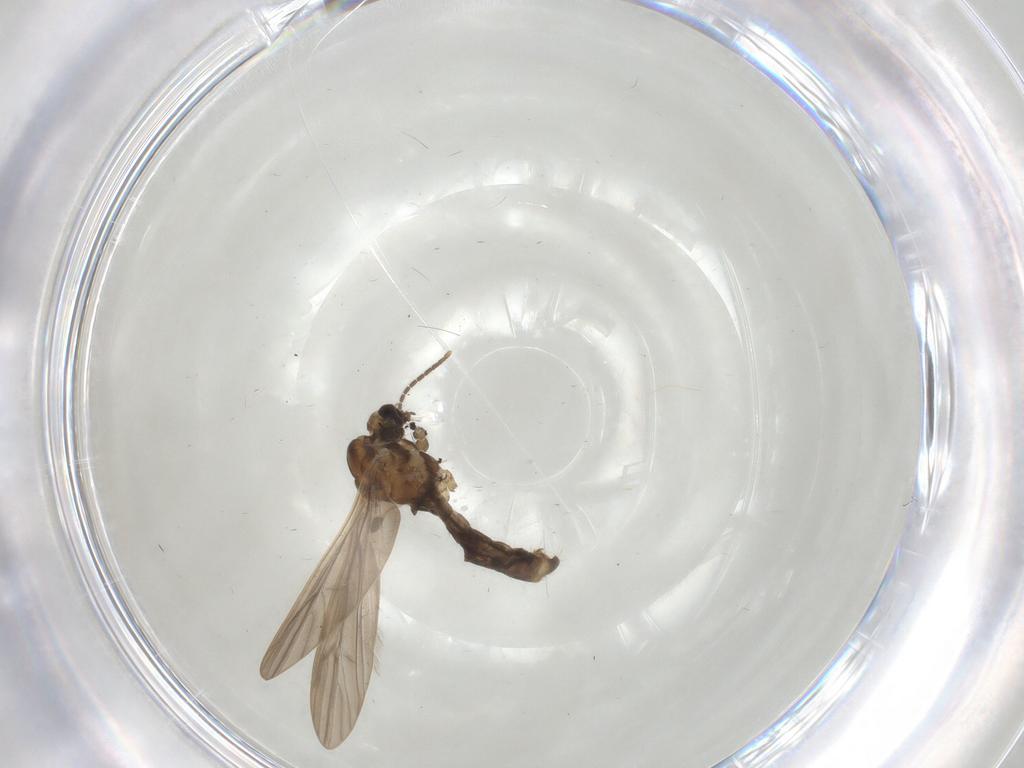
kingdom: Animalia
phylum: Arthropoda
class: Insecta
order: Diptera
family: Limoniidae
